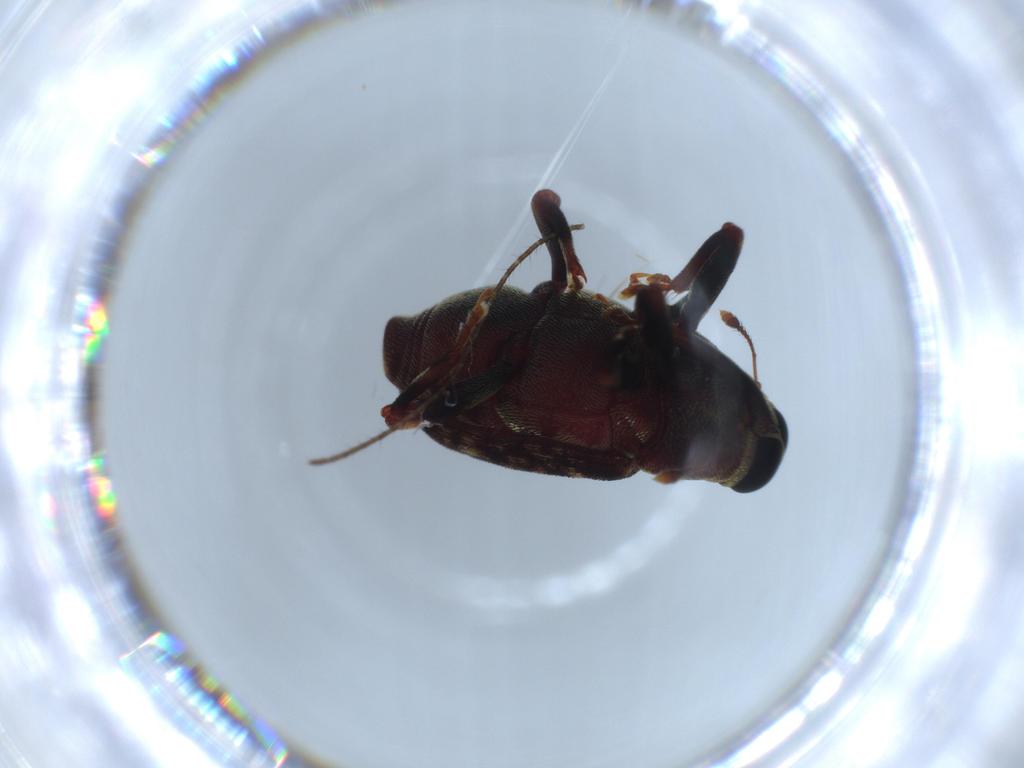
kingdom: Animalia
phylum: Arthropoda
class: Insecta
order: Coleoptera
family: Curculionidae
